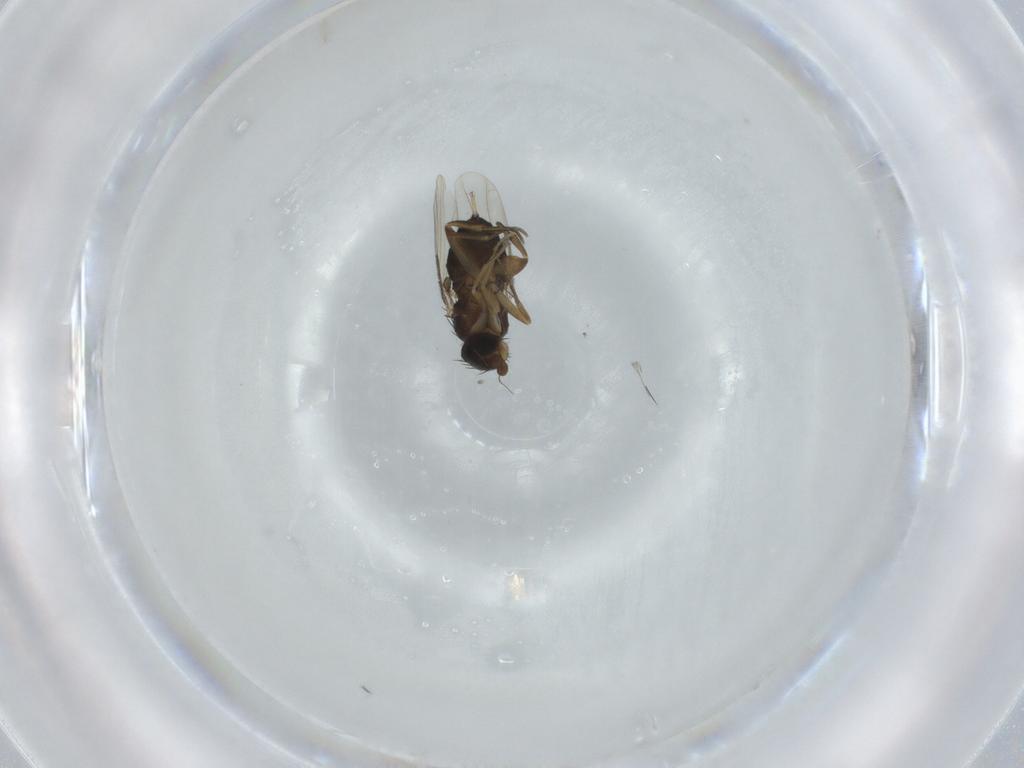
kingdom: Animalia
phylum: Arthropoda
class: Insecta
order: Diptera
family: Phoridae
